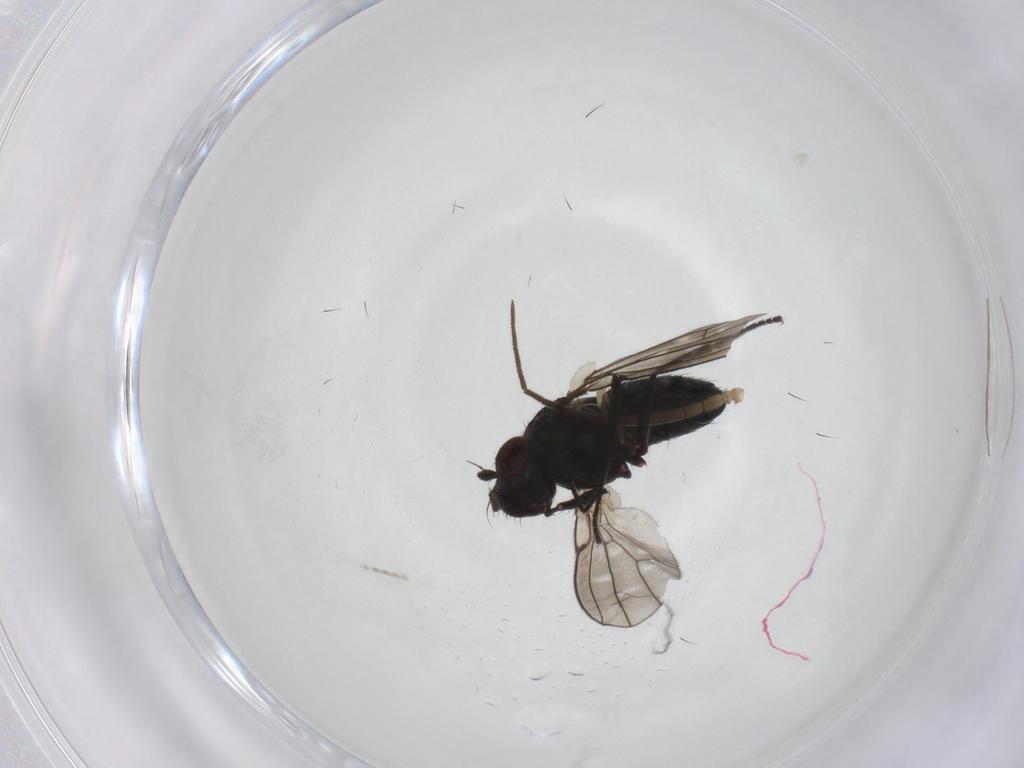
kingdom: Animalia
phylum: Arthropoda
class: Insecta
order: Diptera
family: Ephydridae
